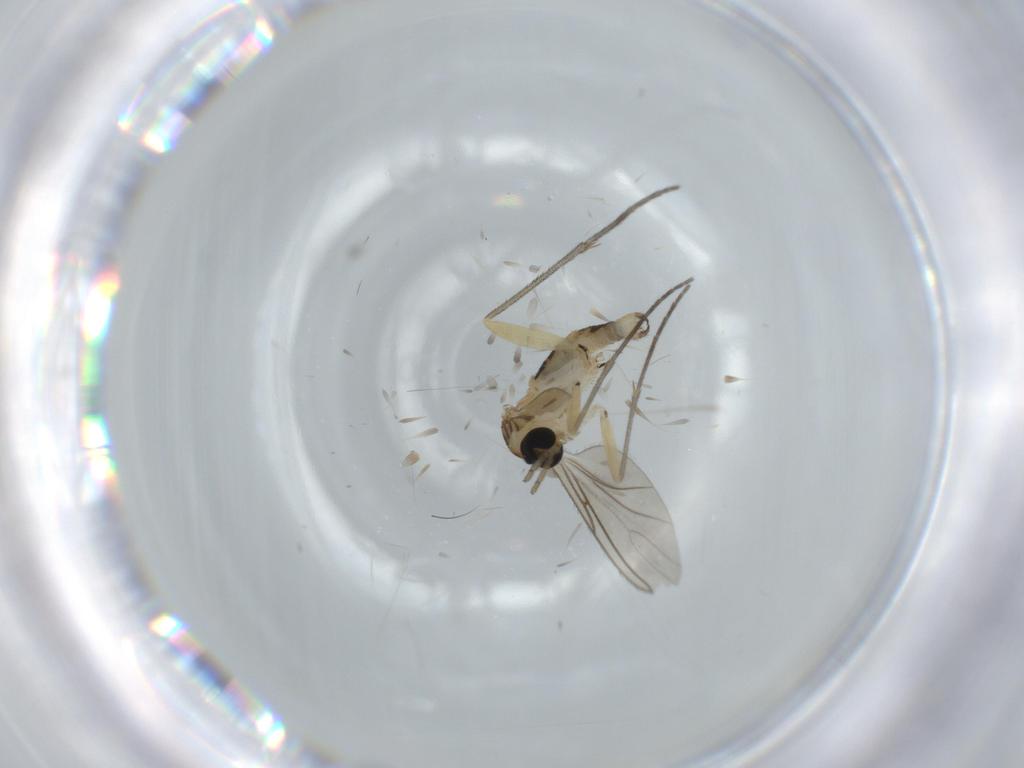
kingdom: Animalia
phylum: Arthropoda
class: Insecta
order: Diptera
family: Sciaridae
